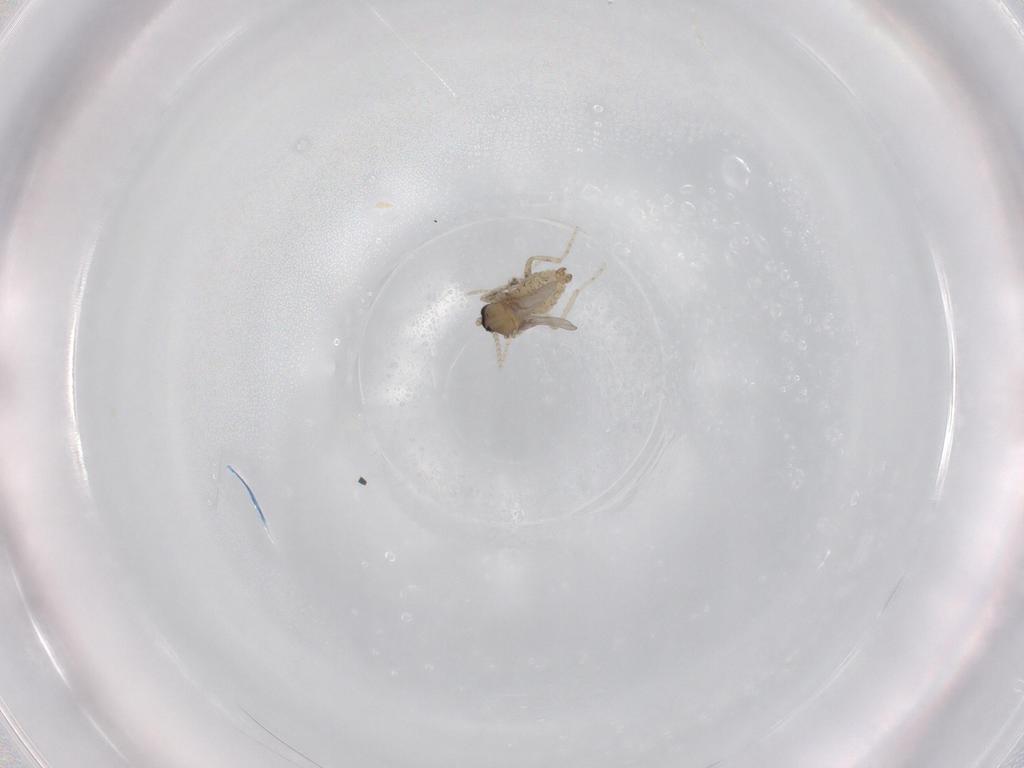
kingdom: Animalia
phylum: Arthropoda
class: Insecta
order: Diptera
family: Cecidomyiidae
